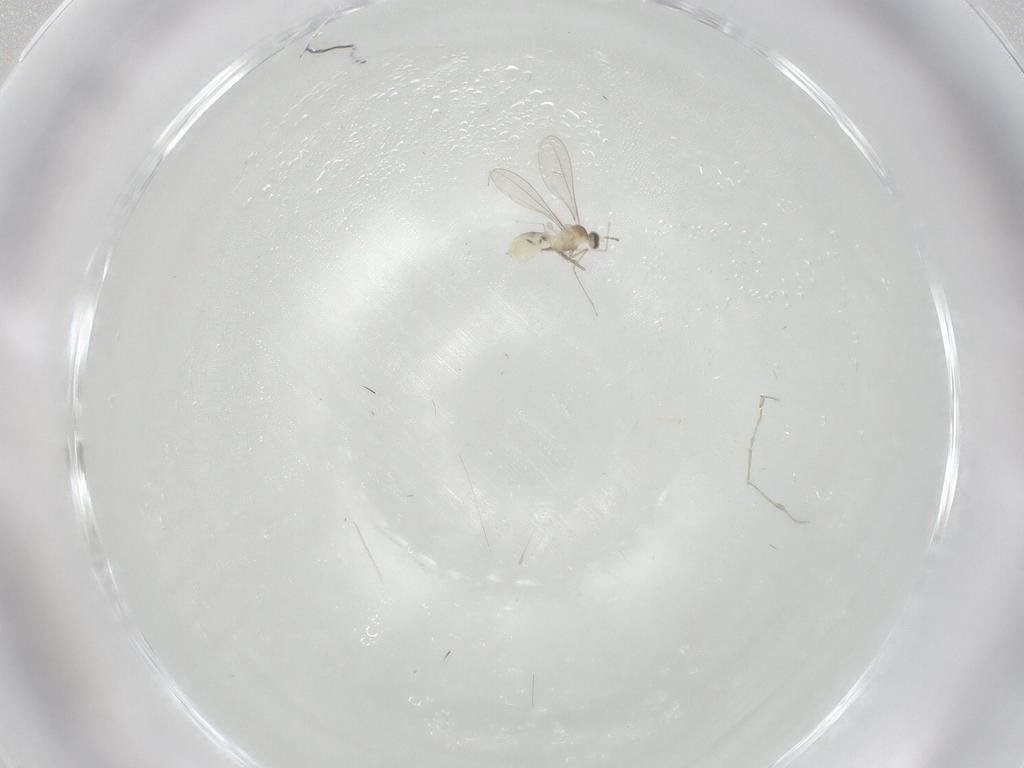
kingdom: Animalia
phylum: Arthropoda
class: Insecta
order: Diptera
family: Chironomidae
